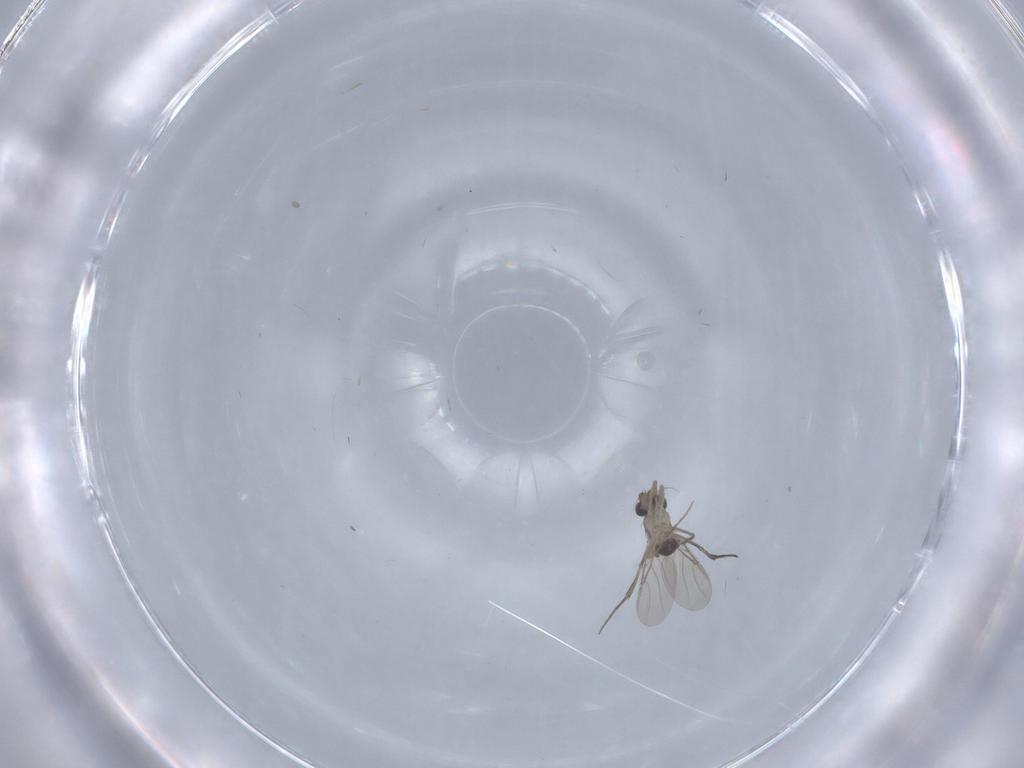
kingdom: Animalia
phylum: Arthropoda
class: Insecta
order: Diptera
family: Phoridae
